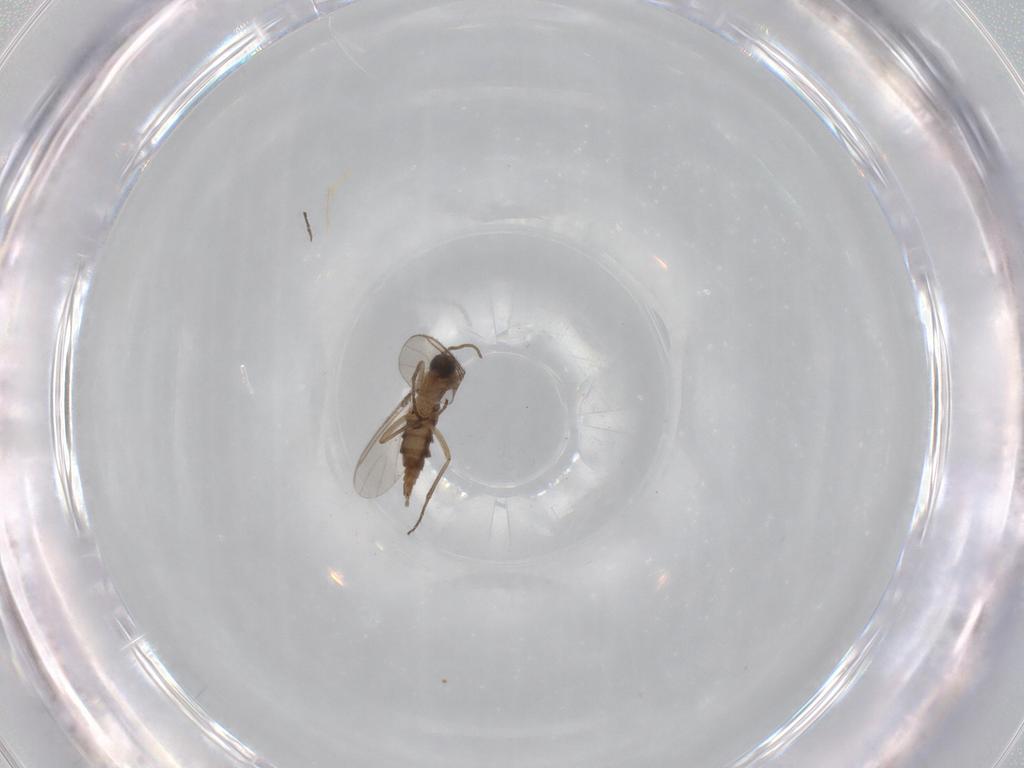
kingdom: Animalia
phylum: Arthropoda
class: Insecta
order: Diptera
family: Sciaridae
